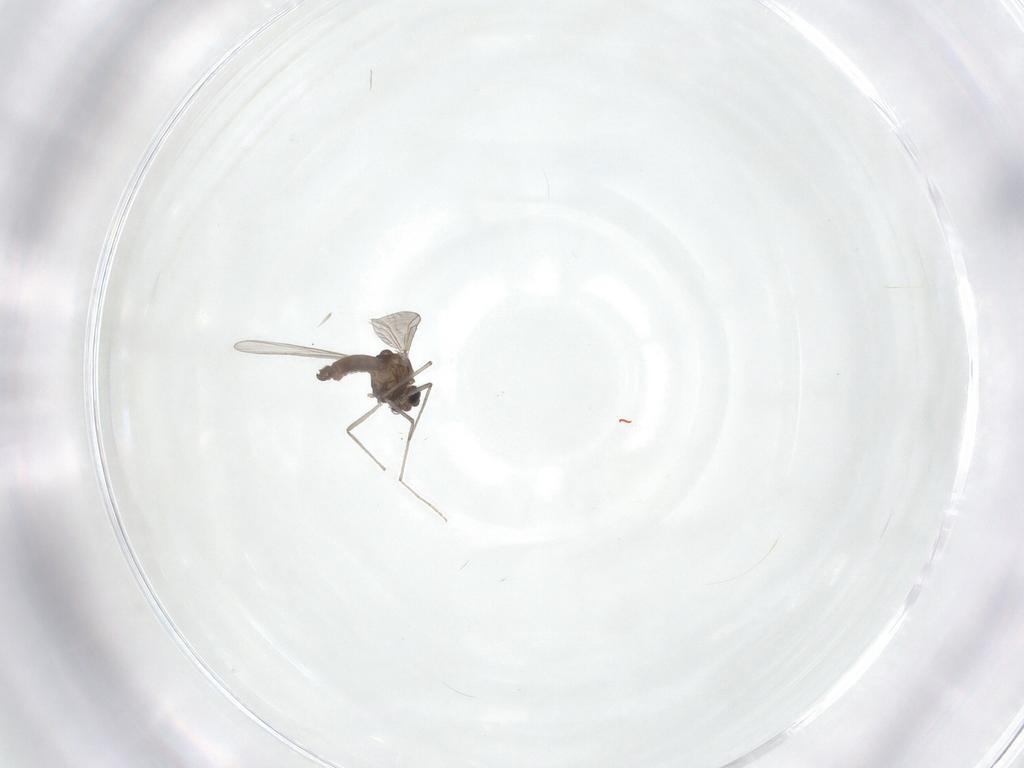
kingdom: Animalia
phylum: Arthropoda
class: Insecta
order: Diptera
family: Chironomidae
